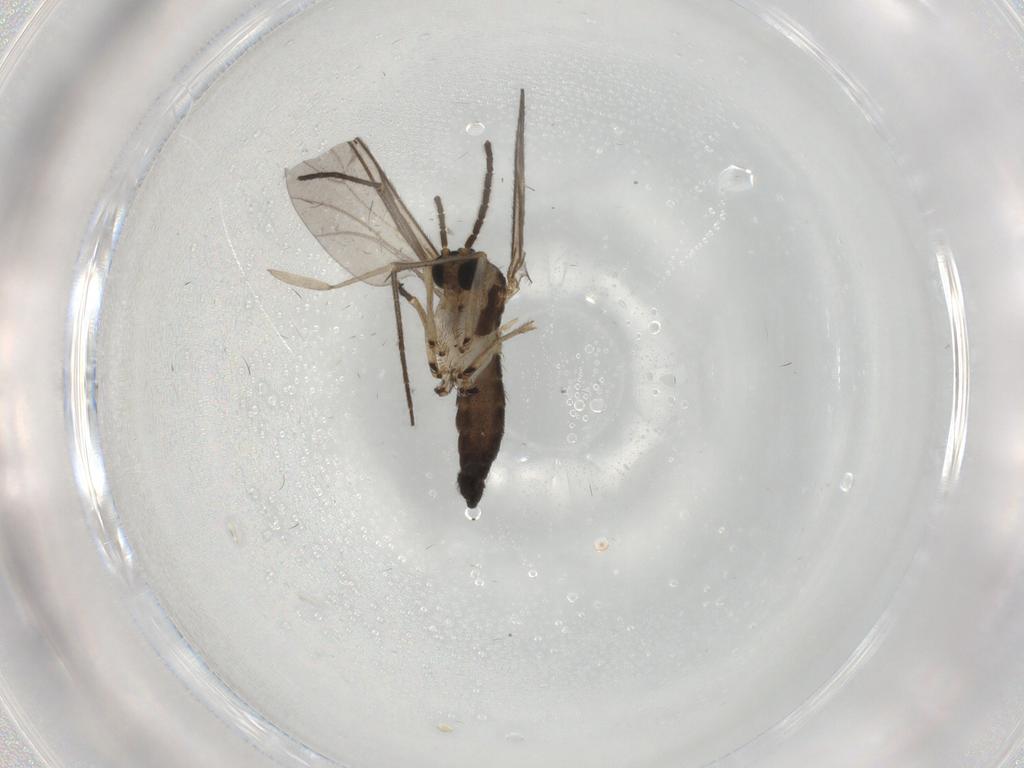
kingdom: Animalia
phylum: Arthropoda
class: Insecta
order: Diptera
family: Sciaridae
